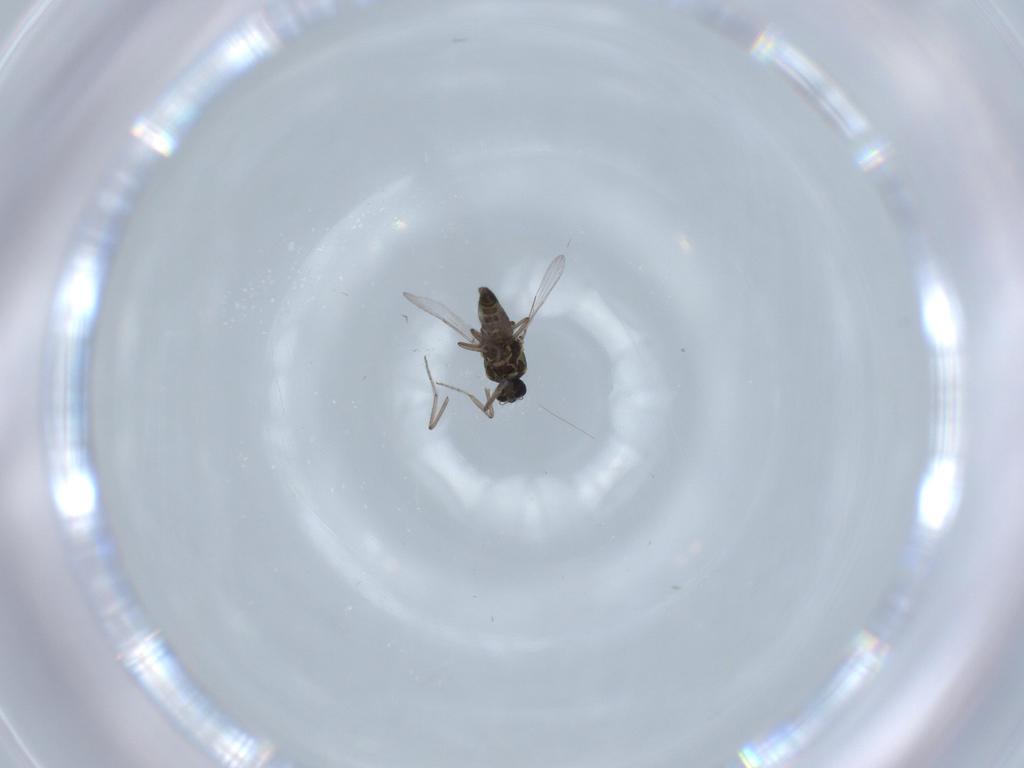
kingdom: Animalia
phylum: Arthropoda
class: Insecta
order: Diptera
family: Ceratopogonidae
